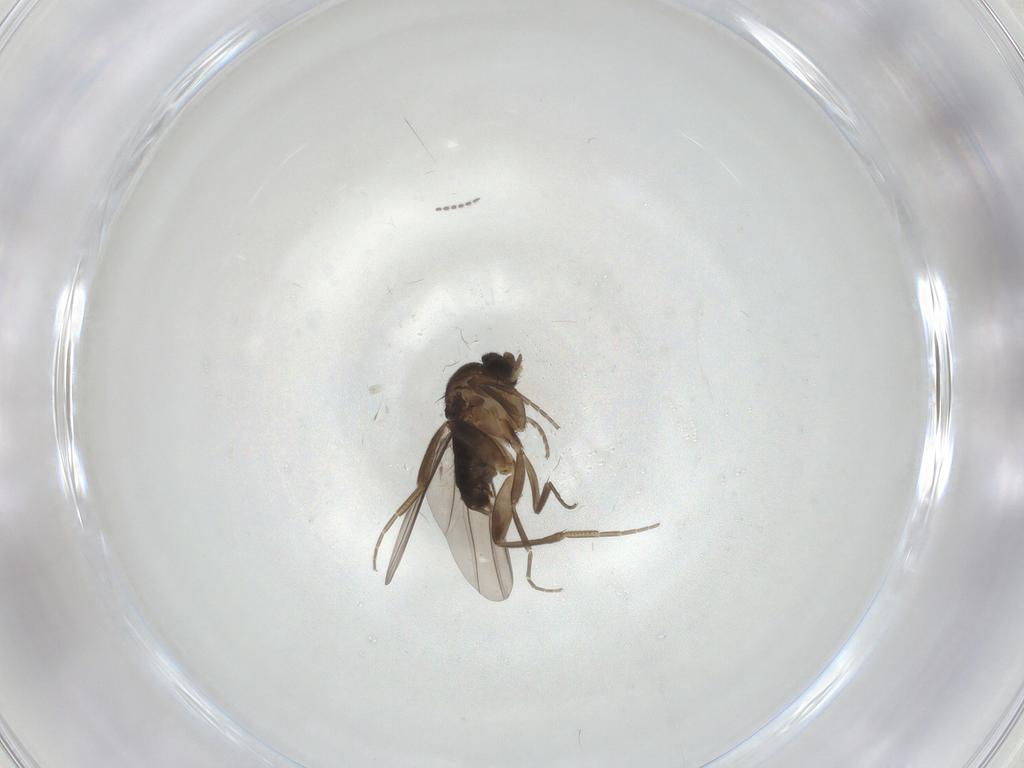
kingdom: Animalia
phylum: Arthropoda
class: Insecta
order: Diptera
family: Phoridae
